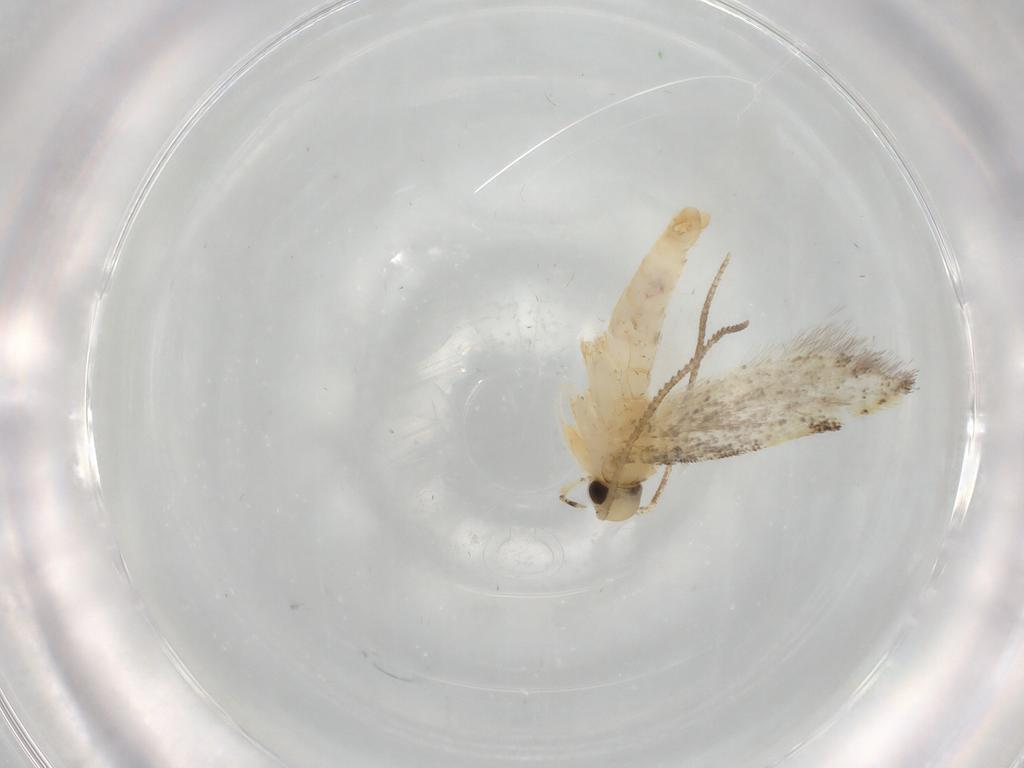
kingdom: Animalia
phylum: Arthropoda
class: Insecta
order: Lepidoptera
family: Autostichidae
